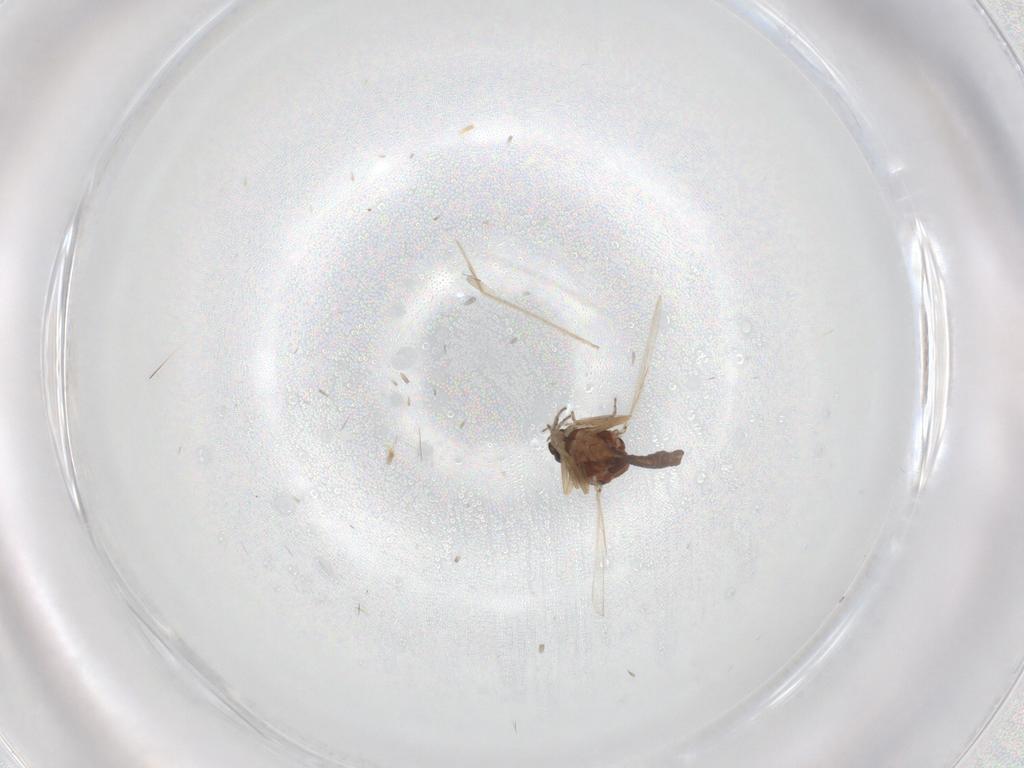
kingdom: Animalia
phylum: Arthropoda
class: Insecta
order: Diptera
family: Ceratopogonidae
